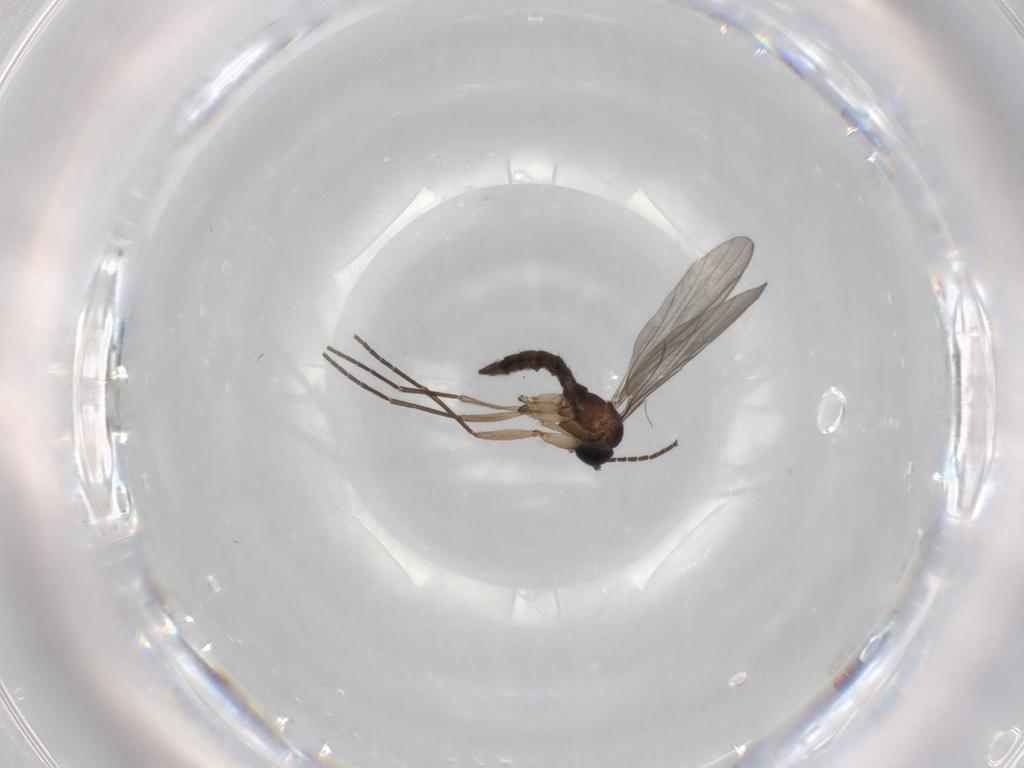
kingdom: Animalia
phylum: Arthropoda
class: Insecta
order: Diptera
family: Sciaridae
